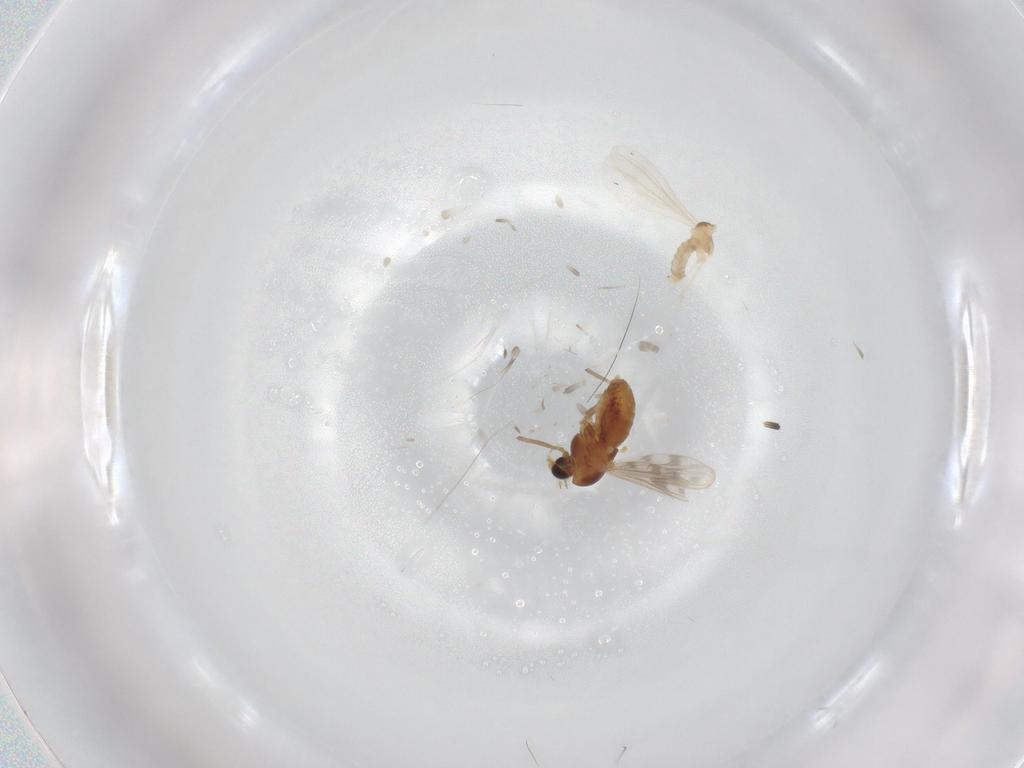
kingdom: Animalia
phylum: Arthropoda
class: Insecta
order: Diptera
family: Chironomidae
